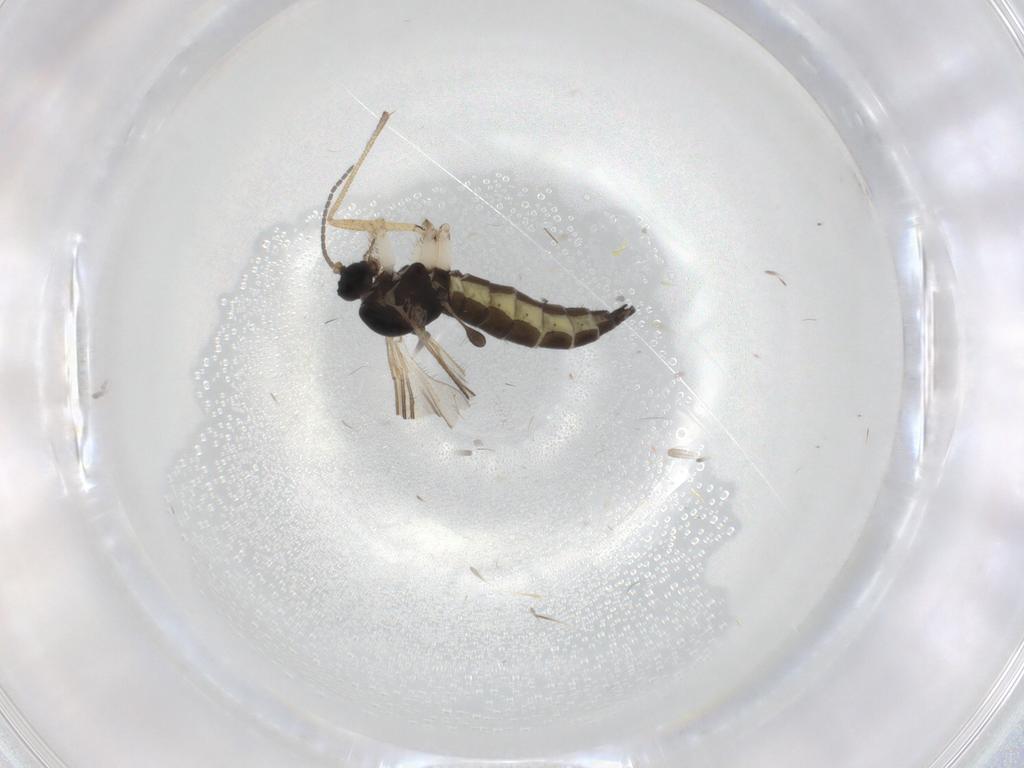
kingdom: Animalia
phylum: Arthropoda
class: Insecta
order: Diptera
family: Sciaridae
